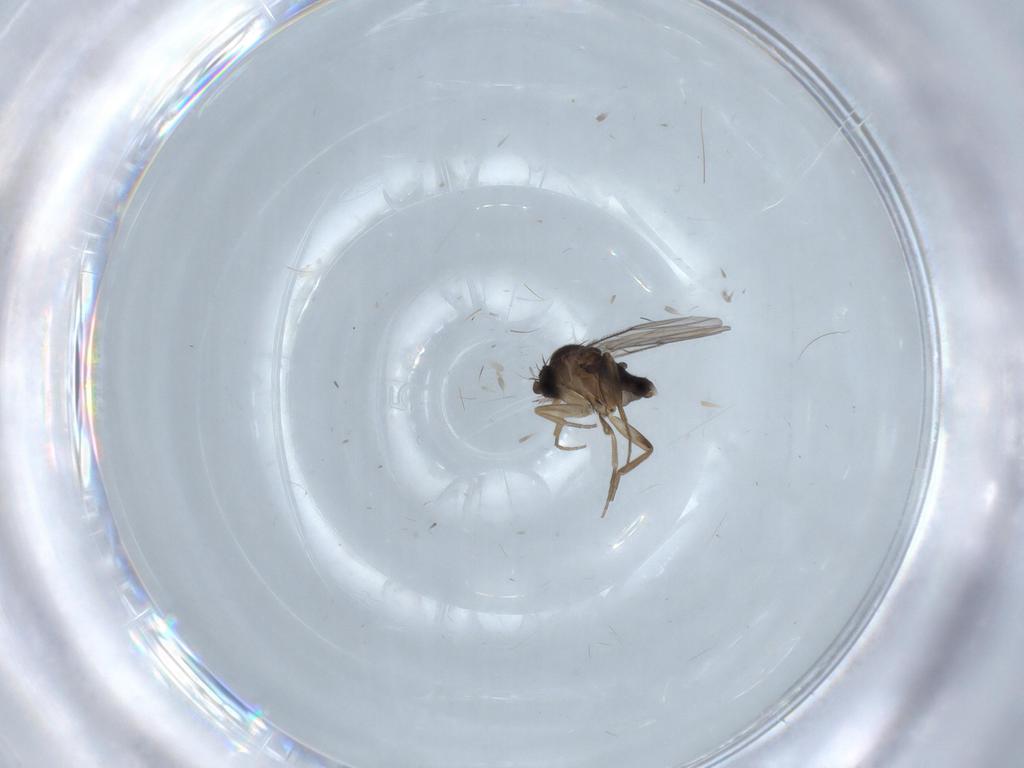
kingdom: Animalia
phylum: Arthropoda
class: Insecta
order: Diptera
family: Phoridae
